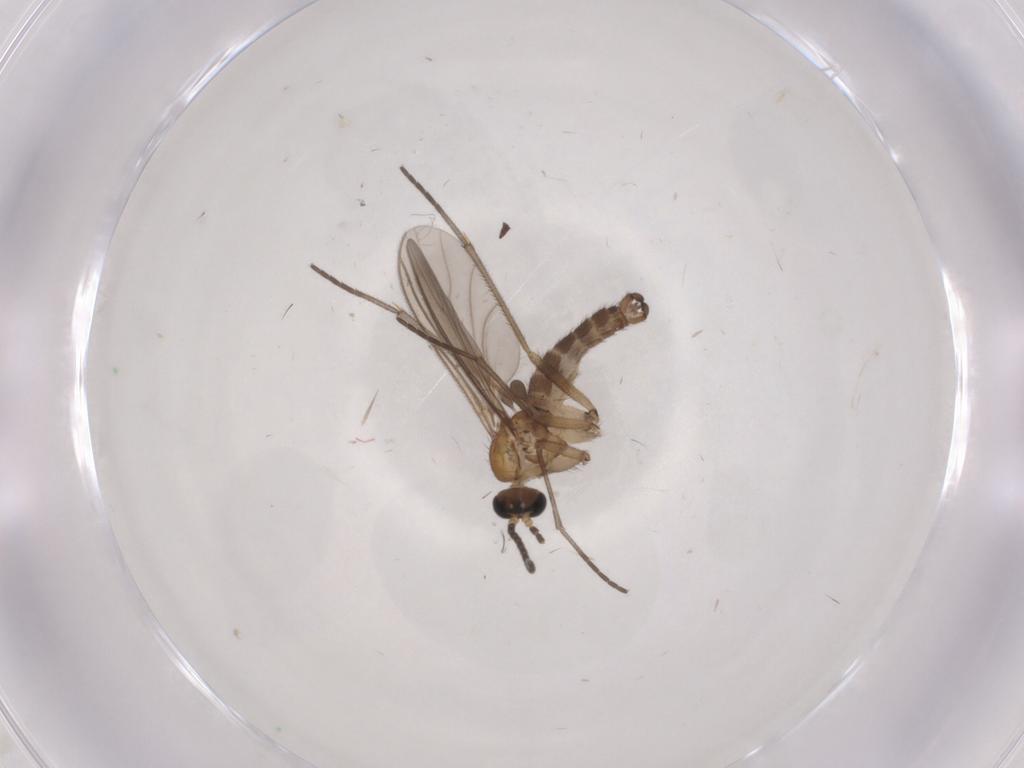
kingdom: Animalia
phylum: Arthropoda
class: Insecta
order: Diptera
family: Sciaridae
